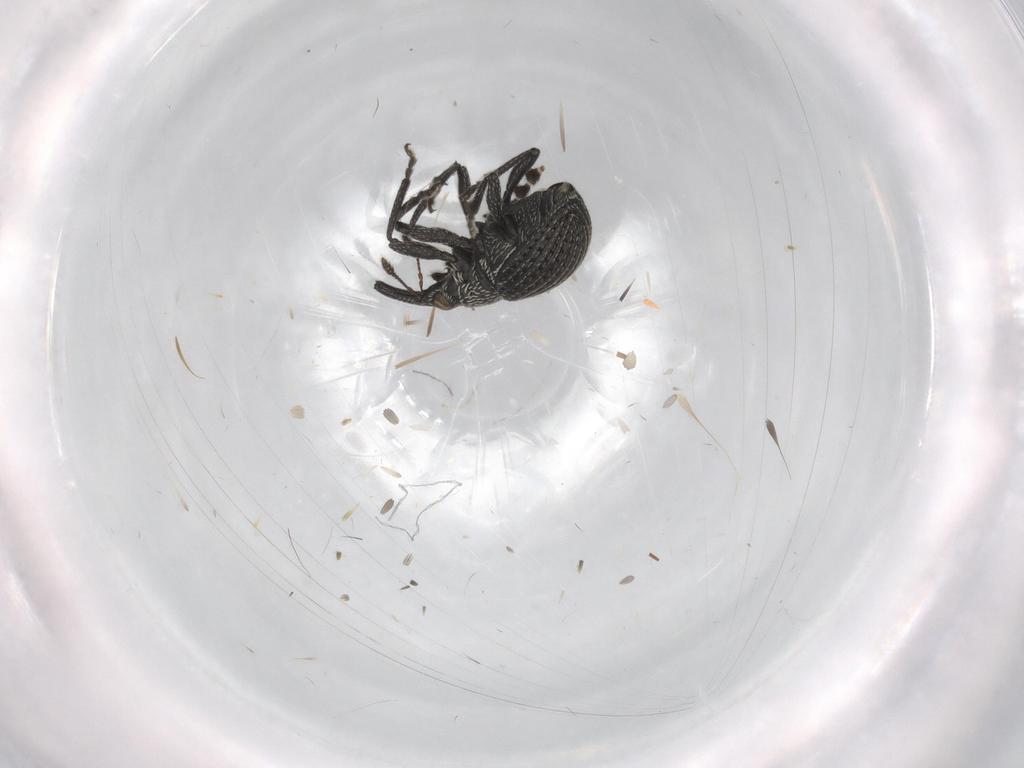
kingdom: Animalia
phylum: Arthropoda
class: Insecta
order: Coleoptera
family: Brentidae
